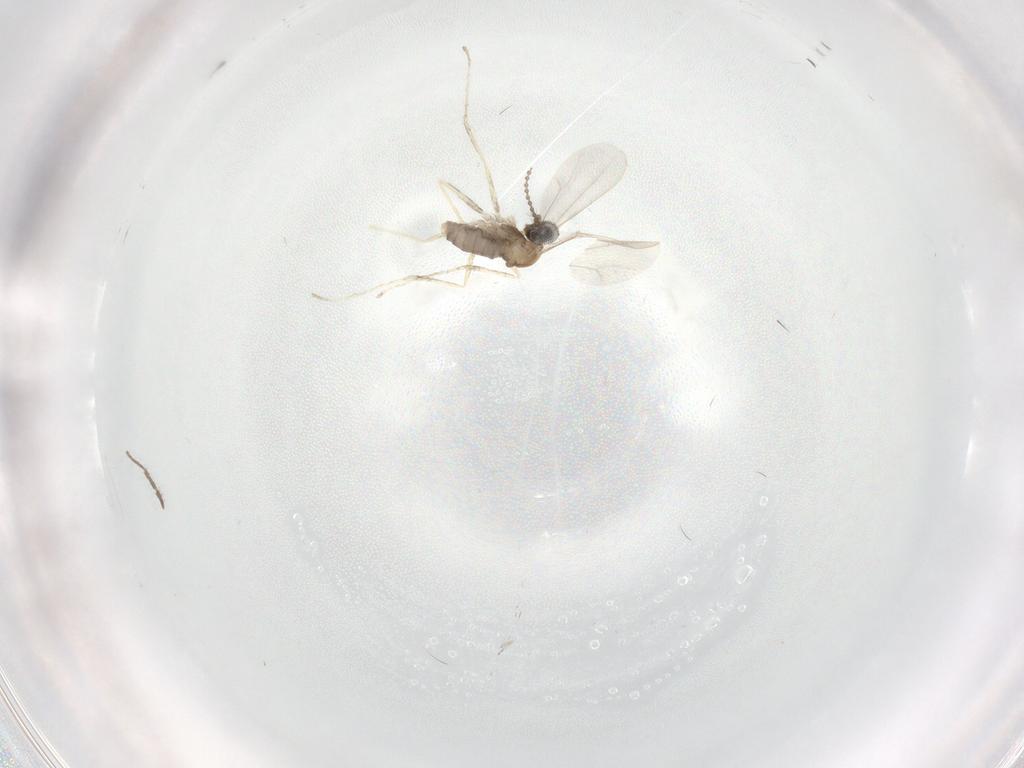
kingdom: Animalia
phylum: Arthropoda
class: Insecta
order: Diptera
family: Cecidomyiidae
